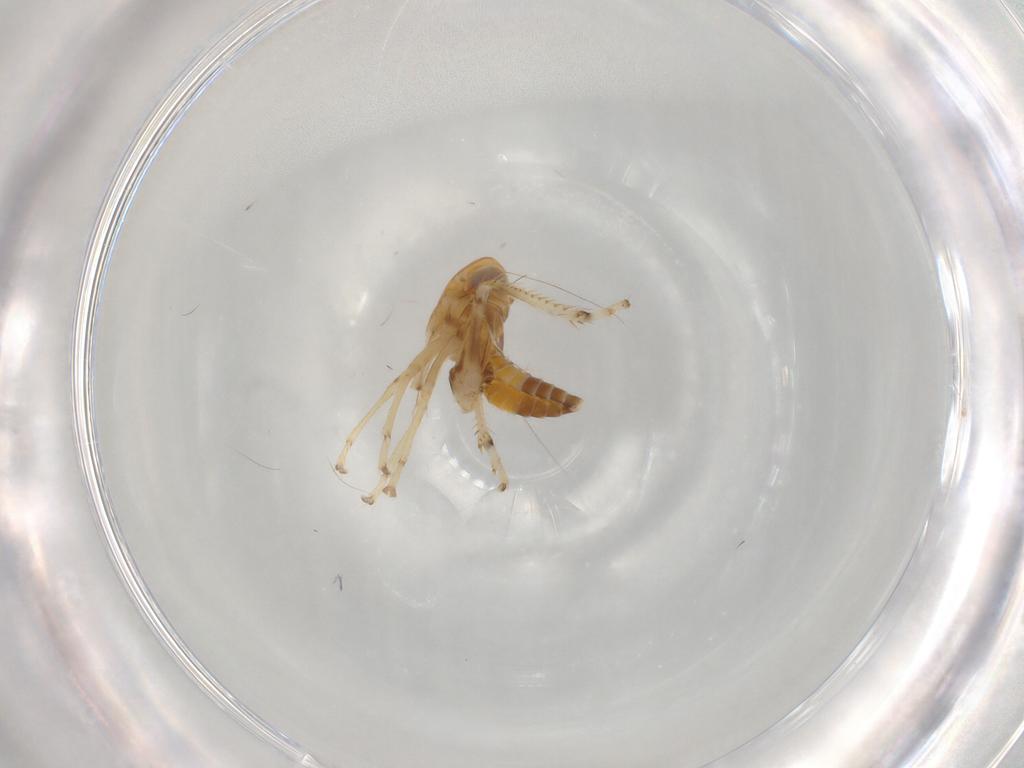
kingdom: Animalia
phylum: Arthropoda
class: Insecta
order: Hemiptera
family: Cicadellidae
